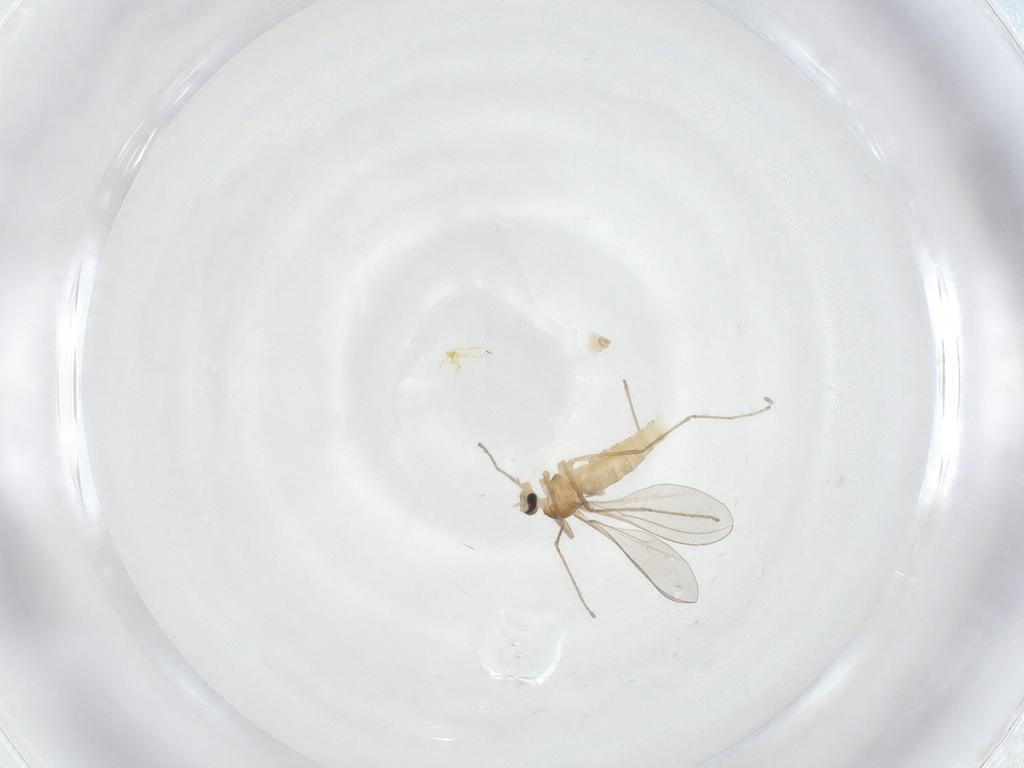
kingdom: Animalia
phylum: Arthropoda
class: Insecta
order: Diptera
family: Cecidomyiidae
